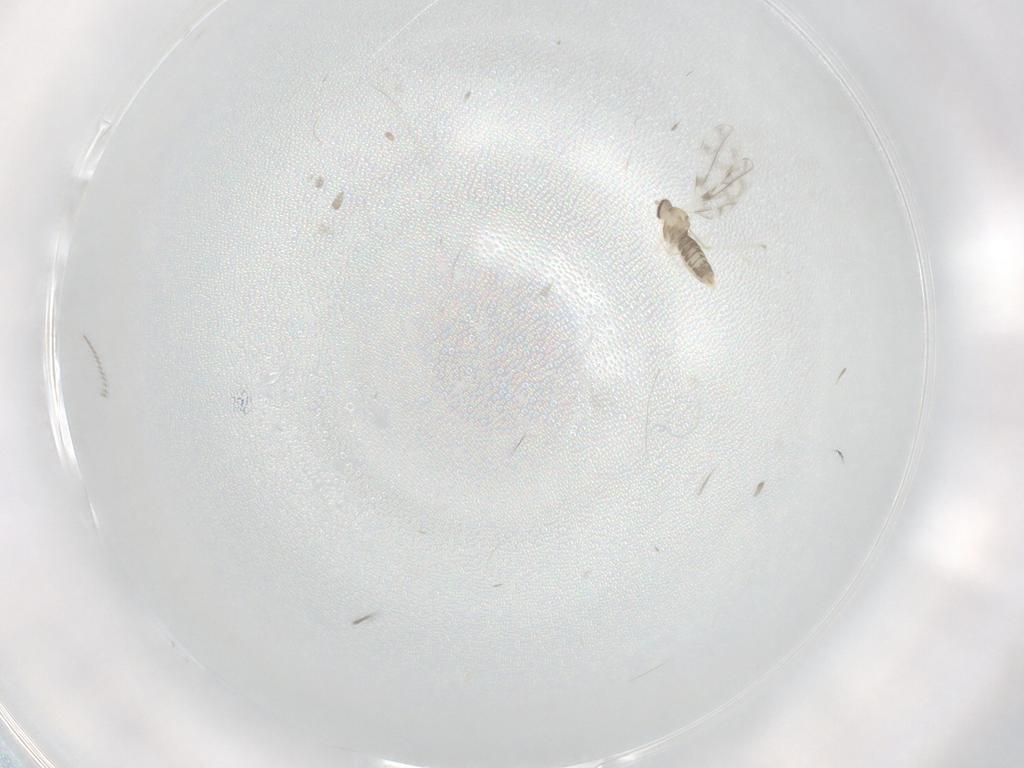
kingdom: Animalia
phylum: Arthropoda
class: Insecta
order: Diptera
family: Cecidomyiidae
